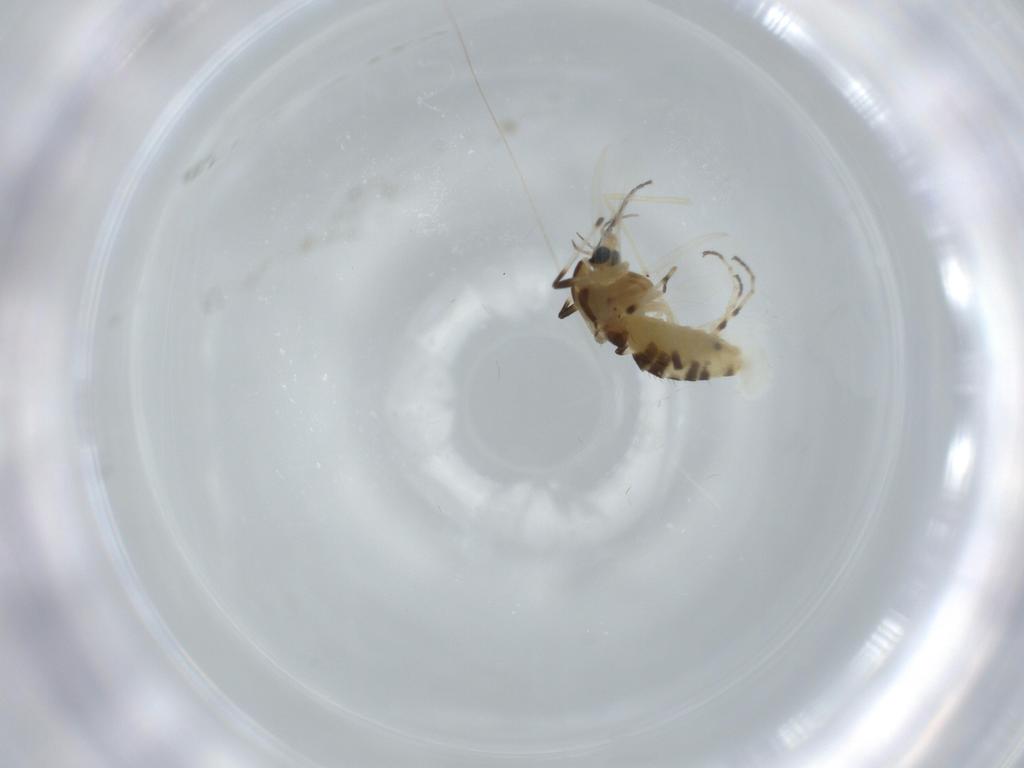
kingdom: Animalia
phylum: Arthropoda
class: Insecta
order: Diptera
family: Chironomidae
